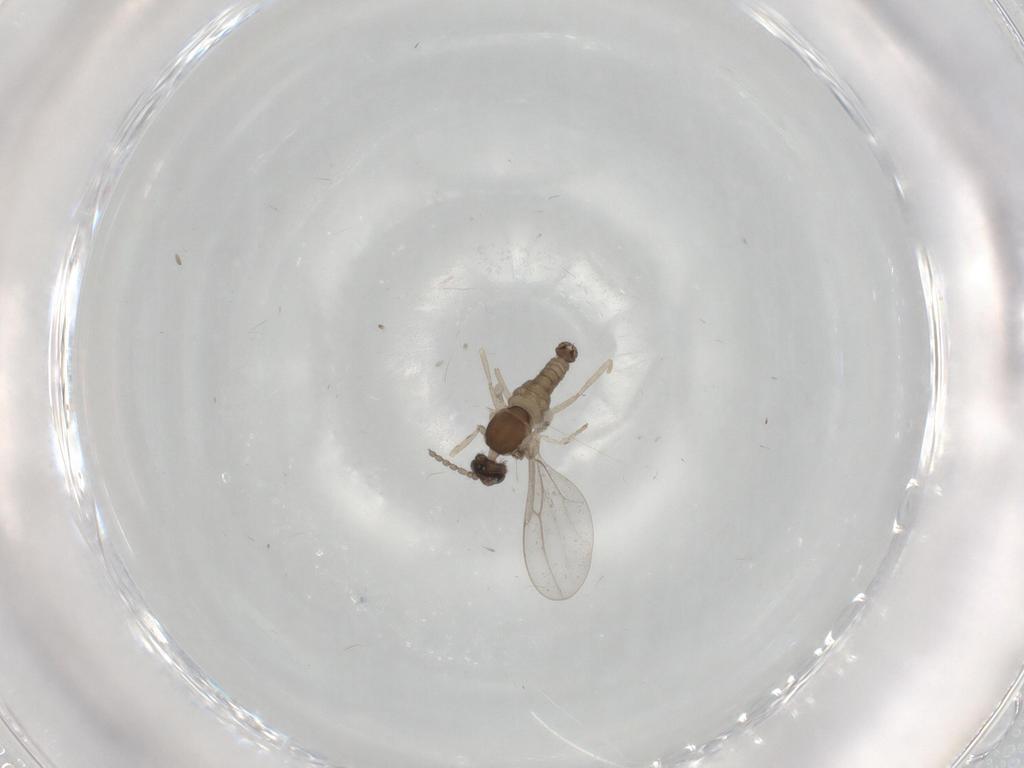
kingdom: Animalia
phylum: Arthropoda
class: Insecta
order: Diptera
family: Cecidomyiidae
